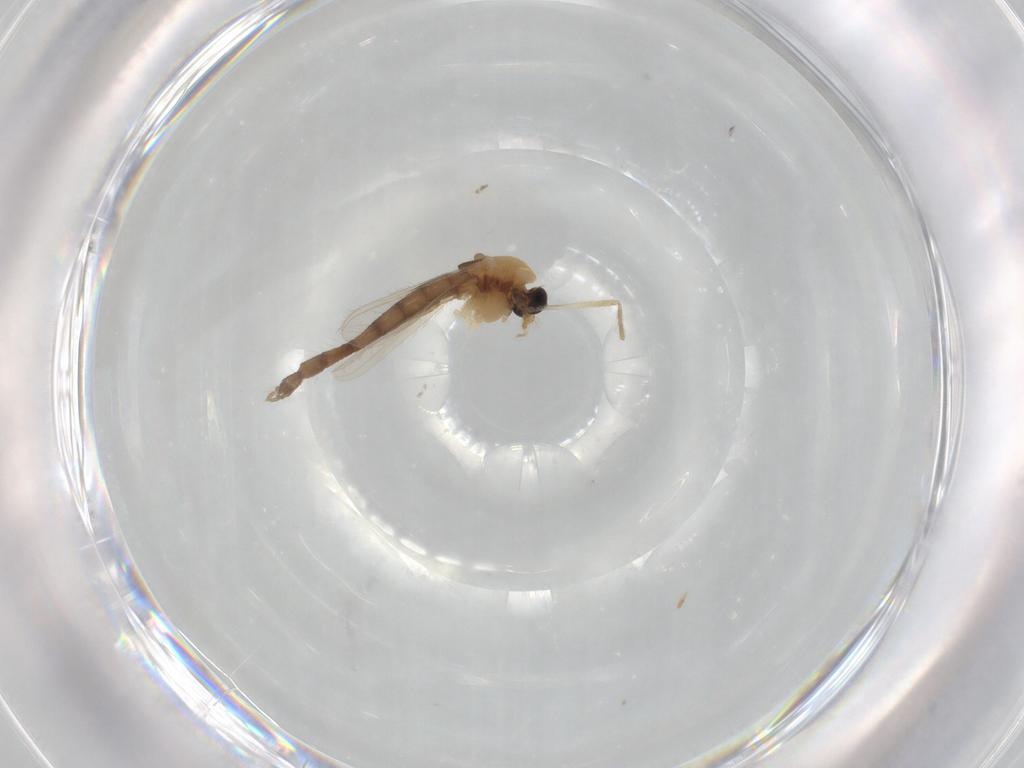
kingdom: Animalia
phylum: Arthropoda
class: Insecta
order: Diptera
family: Chironomidae
